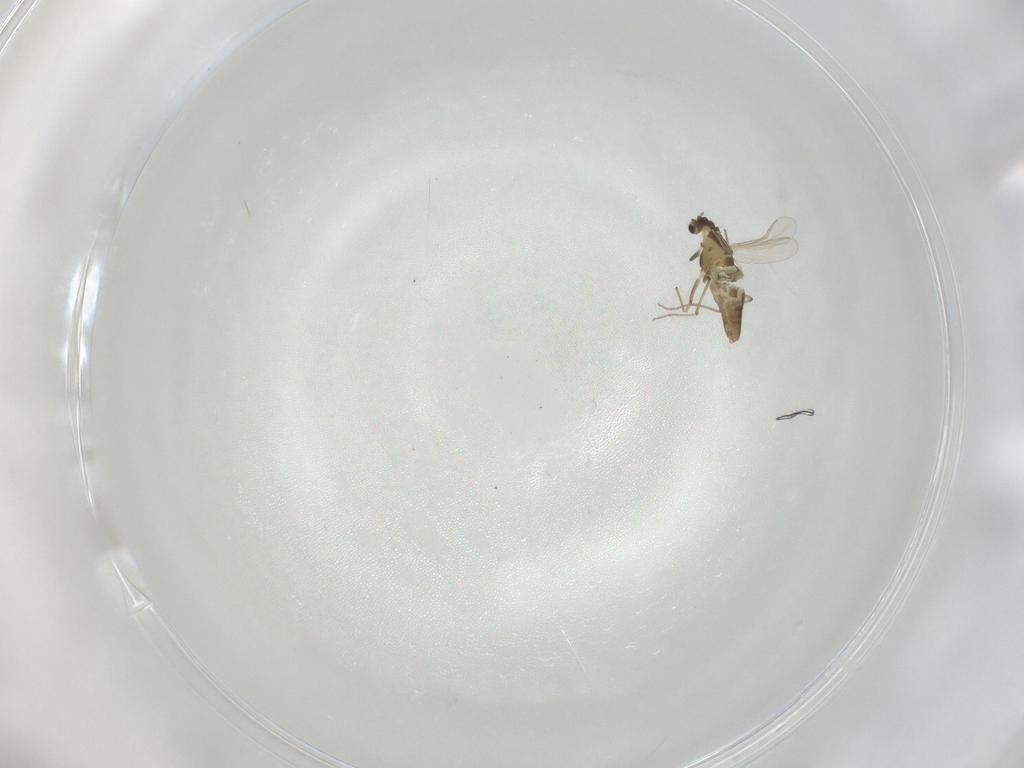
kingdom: Animalia
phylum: Arthropoda
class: Insecta
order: Diptera
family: Chironomidae
